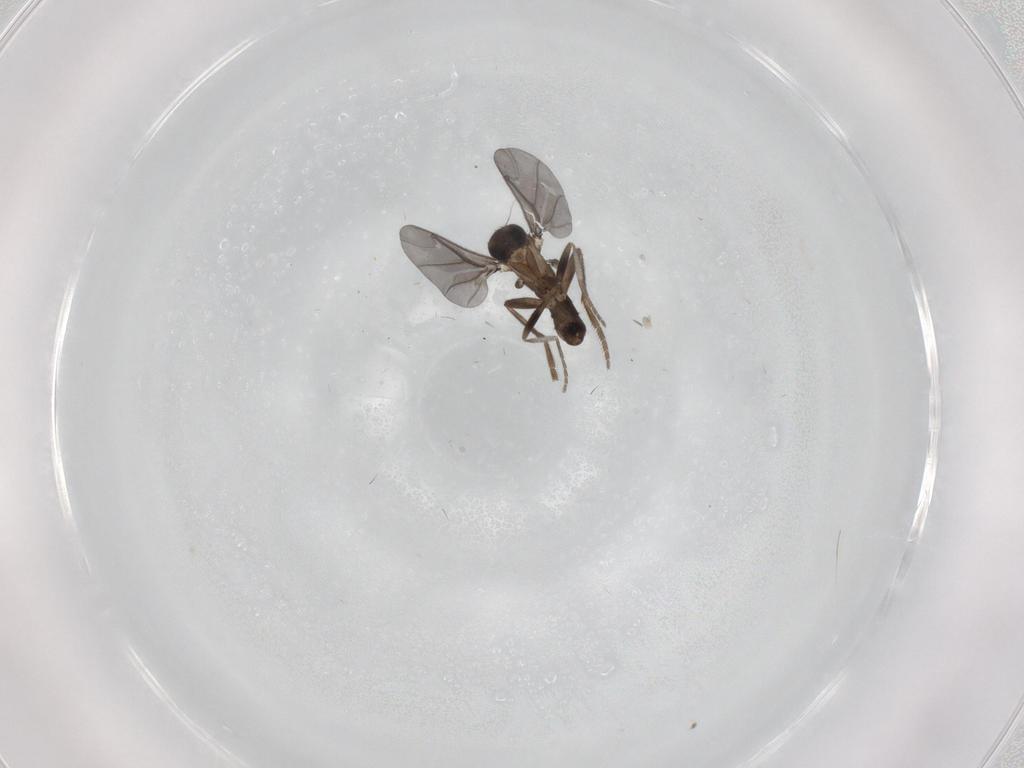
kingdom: Animalia
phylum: Arthropoda
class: Insecta
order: Diptera
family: Phoridae
